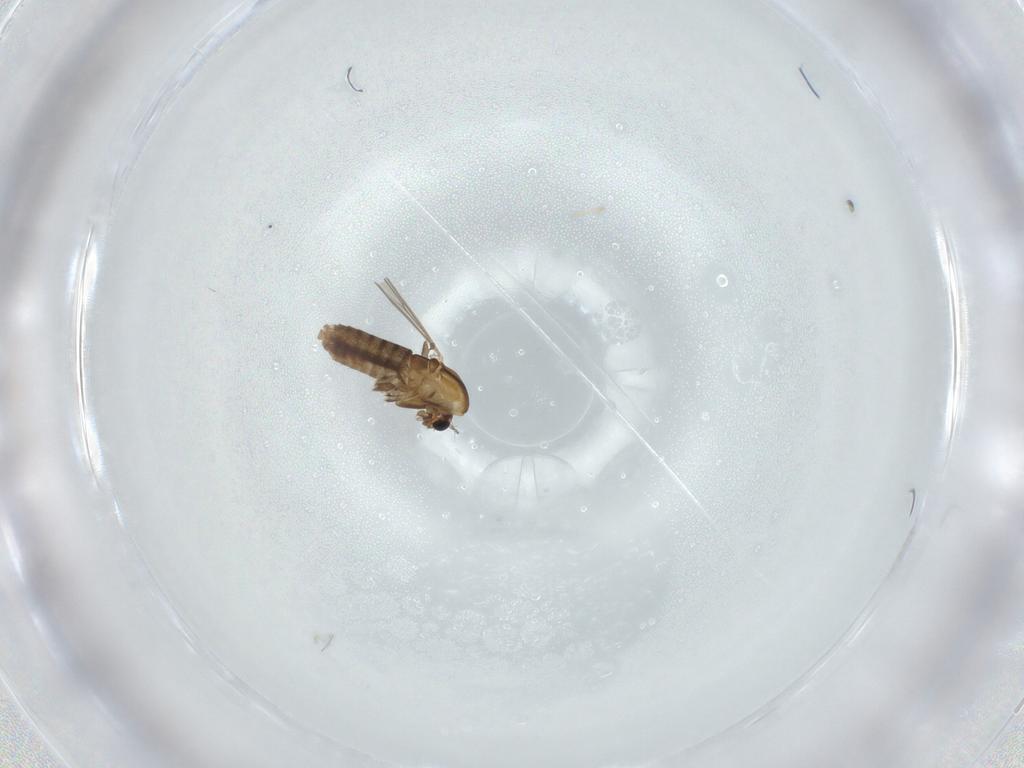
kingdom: Animalia
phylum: Arthropoda
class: Insecta
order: Diptera
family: Chironomidae
